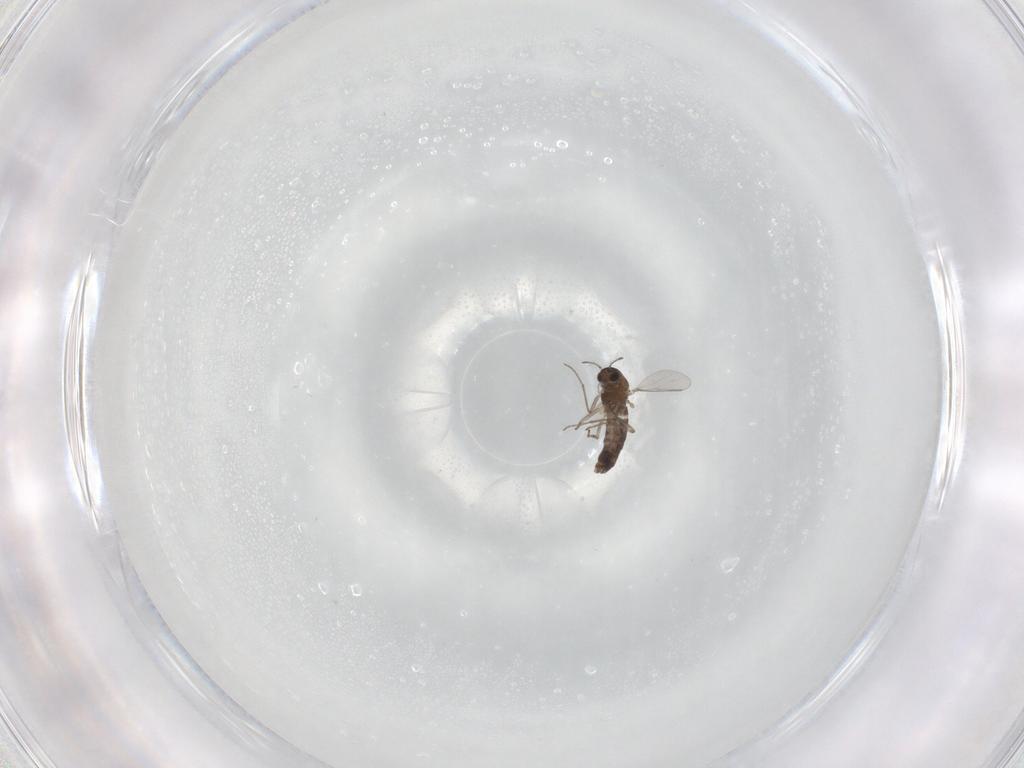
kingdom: Animalia
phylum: Arthropoda
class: Insecta
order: Diptera
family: Chironomidae
